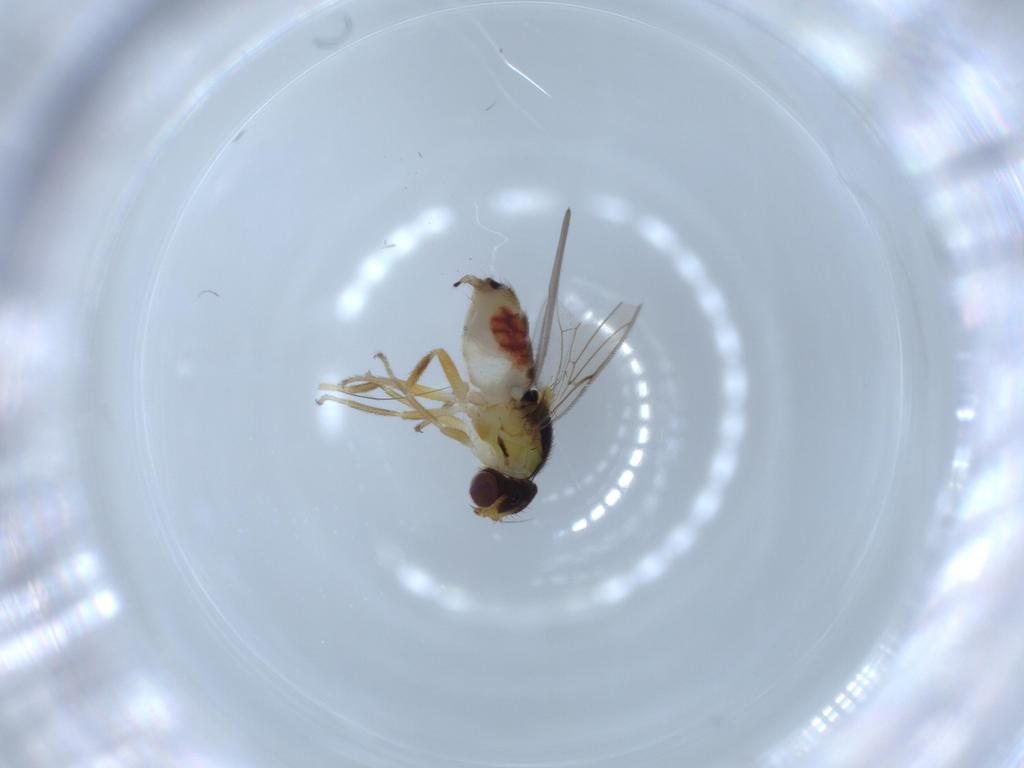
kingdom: Animalia
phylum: Arthropoda
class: Insecta
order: Diptera
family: Chloropidae
